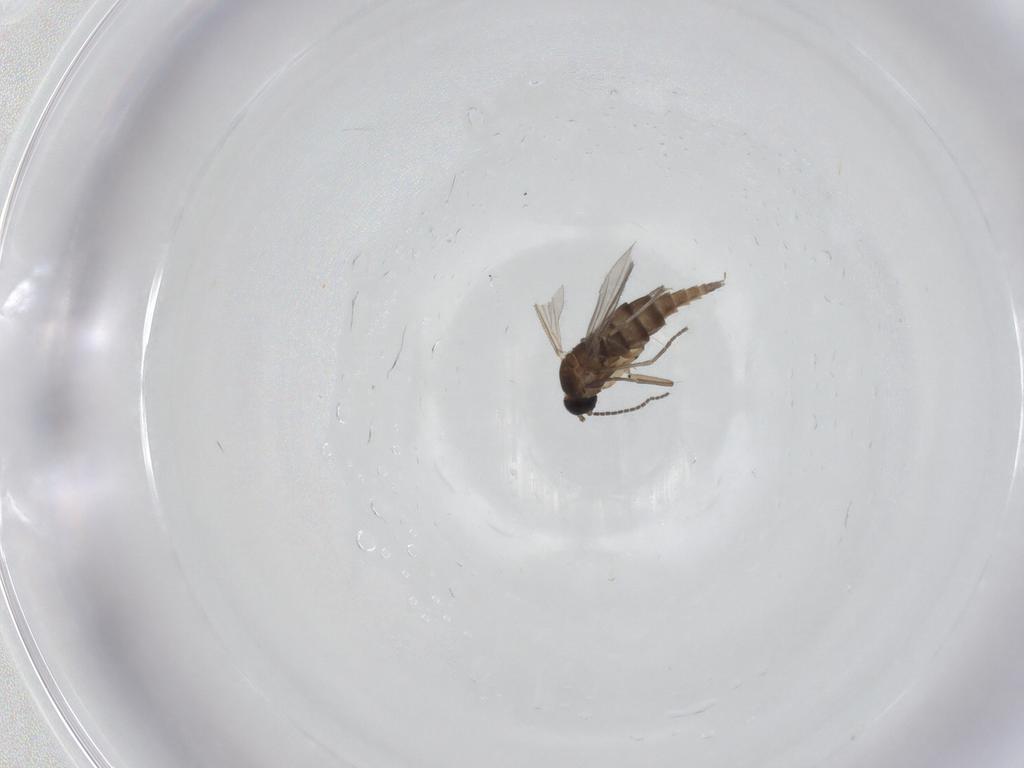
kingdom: Animalia
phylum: Arthropoda
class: Insecta
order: Diptera
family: Sciaridae
